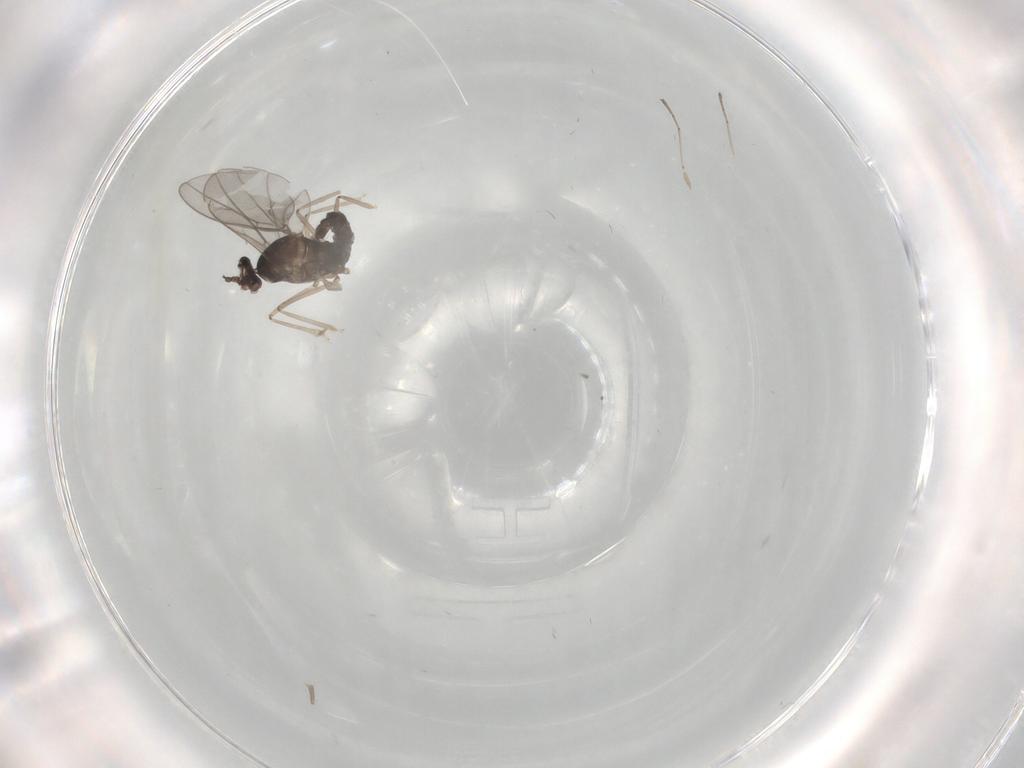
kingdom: Animalia
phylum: Arthropoda
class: Insecta
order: Diptera
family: Cecidomyiidae
